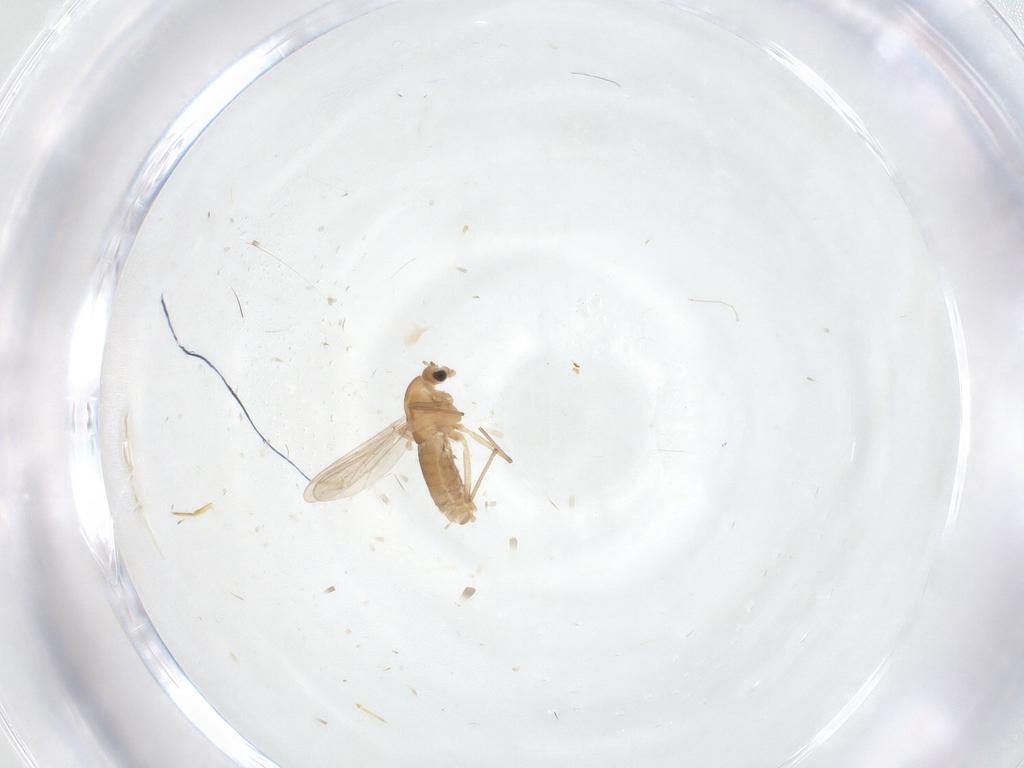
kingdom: Animalia
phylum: Arthropoda
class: Insecta
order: Diptera
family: Chironomidae
